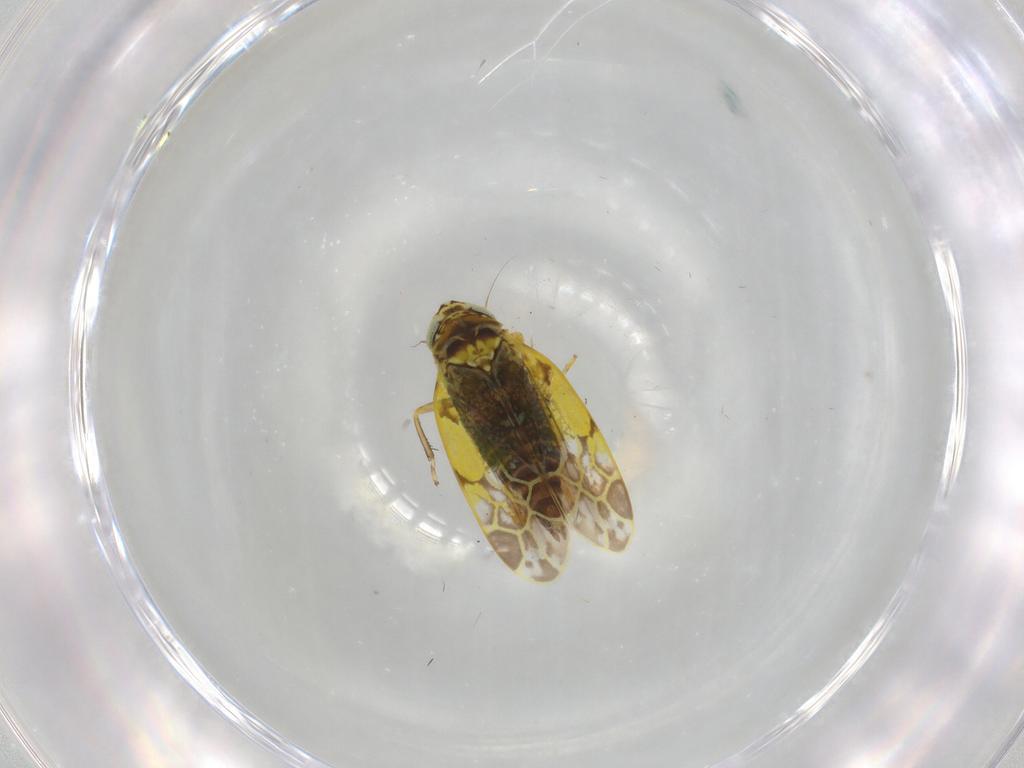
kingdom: Animalia
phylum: Arthropoda
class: Insecta
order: Hemiptera
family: Cicadellidae
